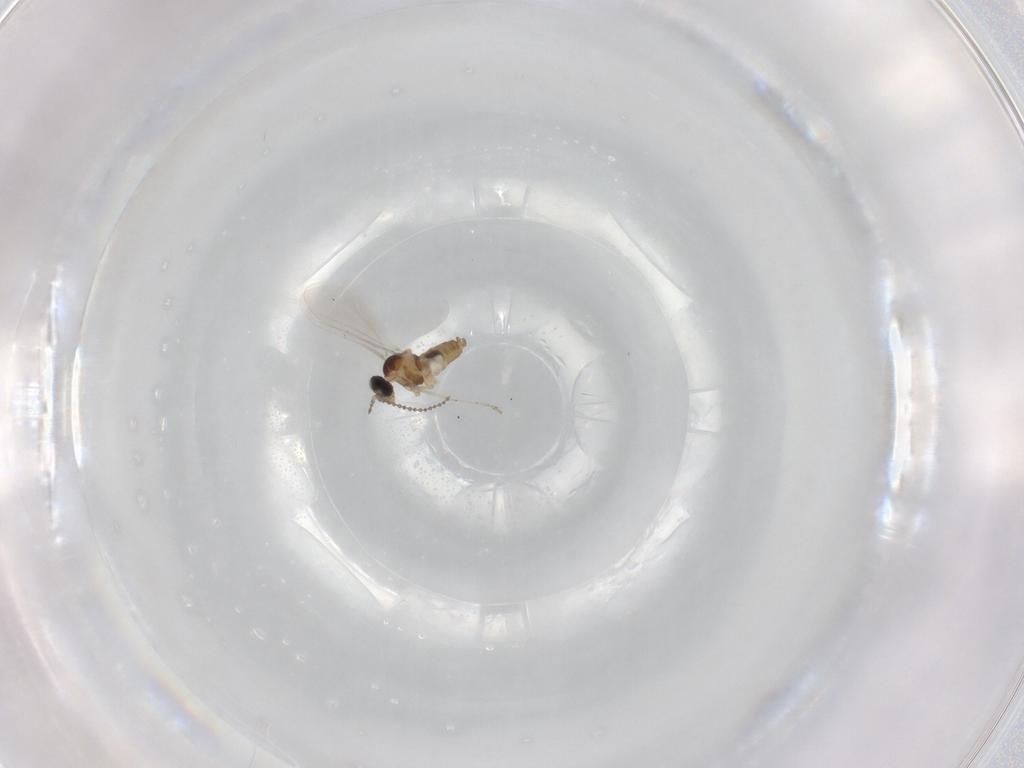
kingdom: Animalia
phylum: Arthropoda
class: Insecta
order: Diptera
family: Cecidomyiidae
